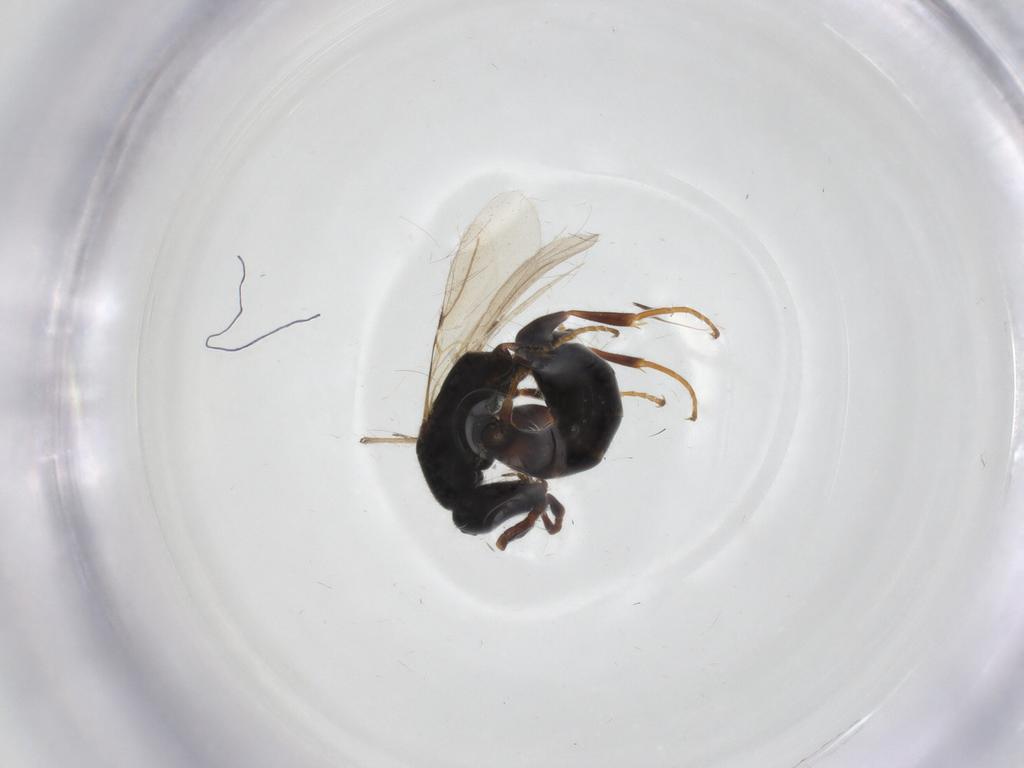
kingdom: Animalia
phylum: Arthropoda
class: Insecta
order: Hymenoptera
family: Bethylidae
